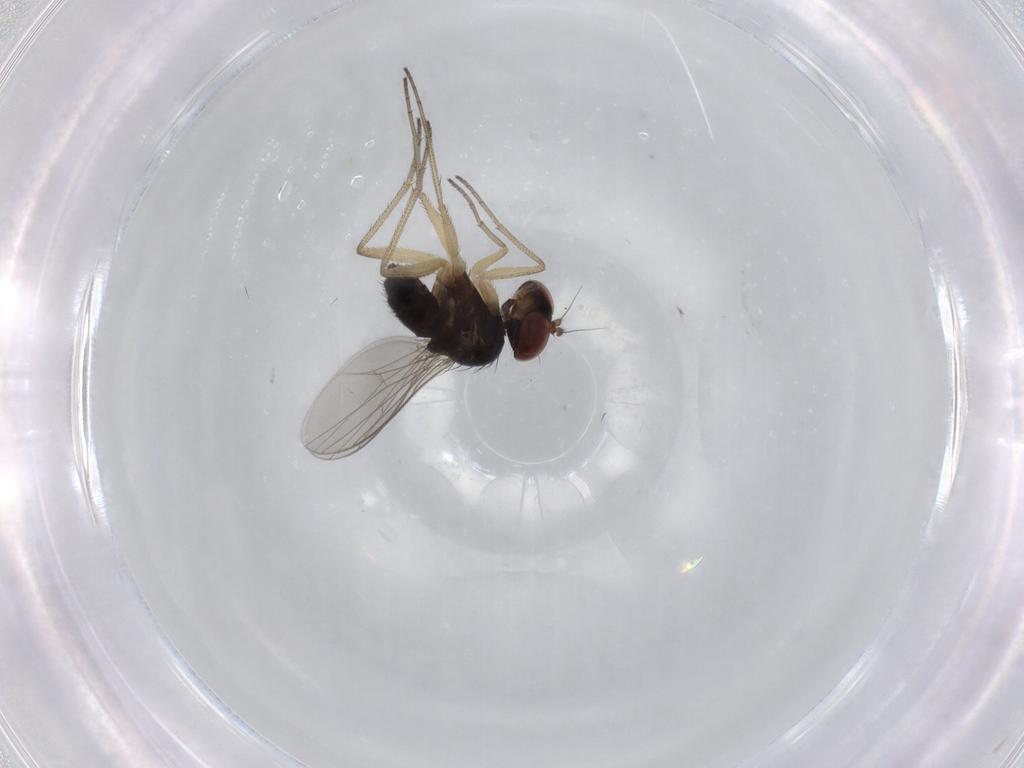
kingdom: Animalia
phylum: Arthropoda
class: Insecta
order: Diptera
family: Dolichopodidae
